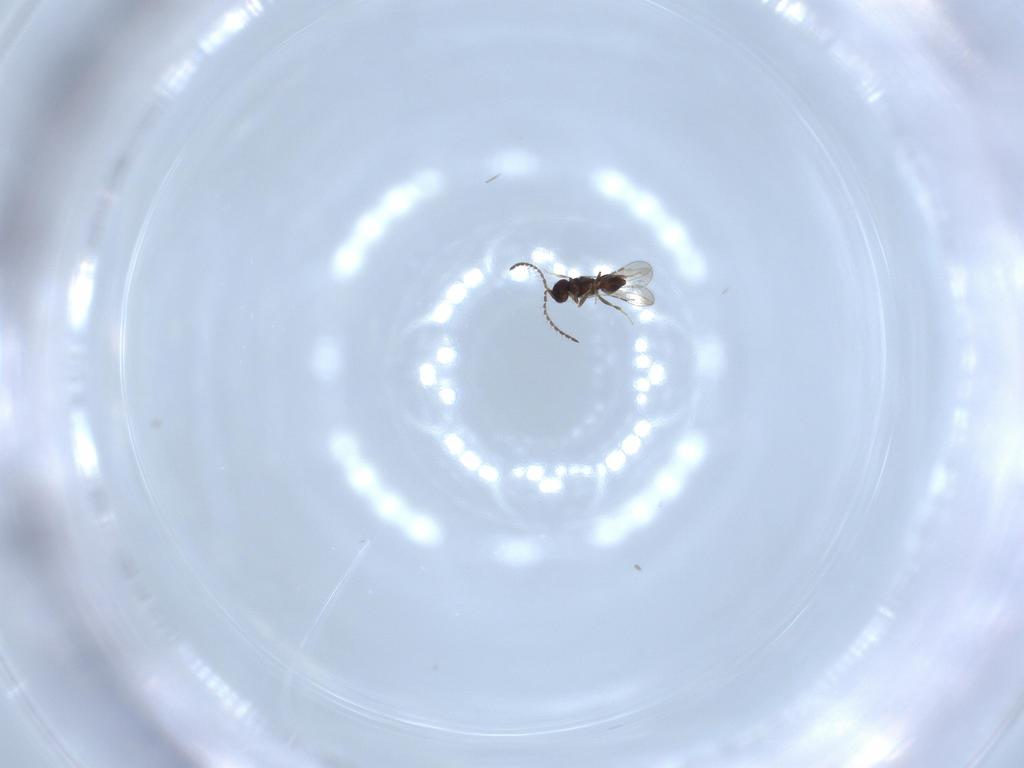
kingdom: Animalia
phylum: Arthropoda
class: Insecta
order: Hymenoptera
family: Formicidae
